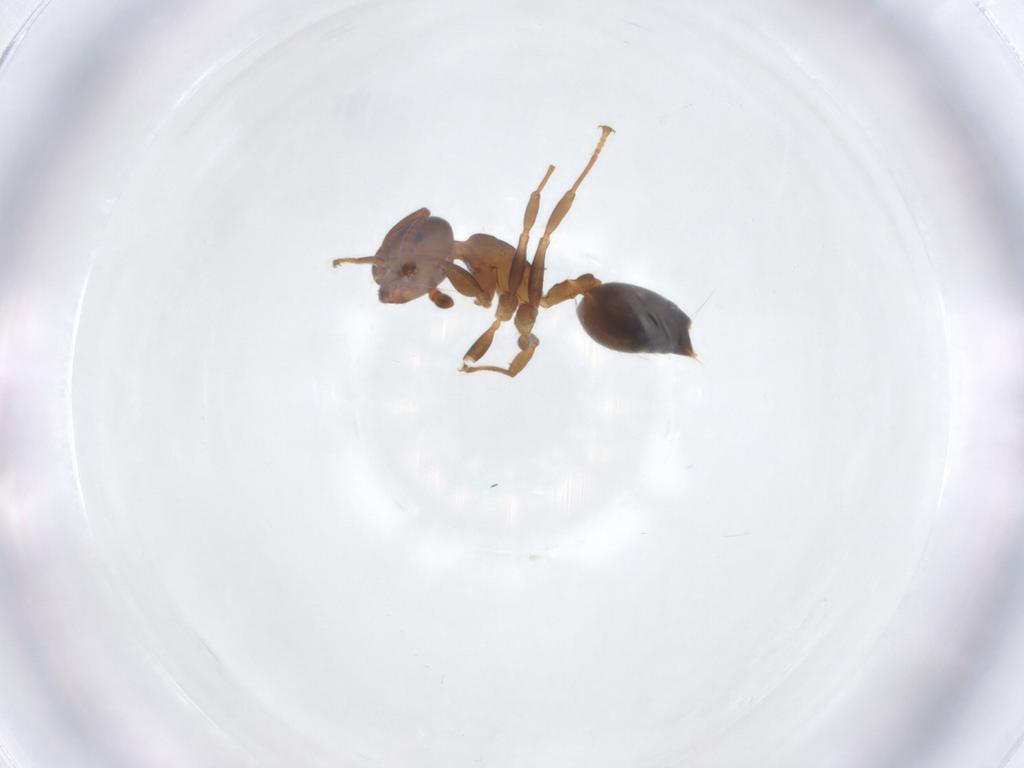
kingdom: Animalia
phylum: Arthropoda
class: Insecta
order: Hymenoptera
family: Formicidae
